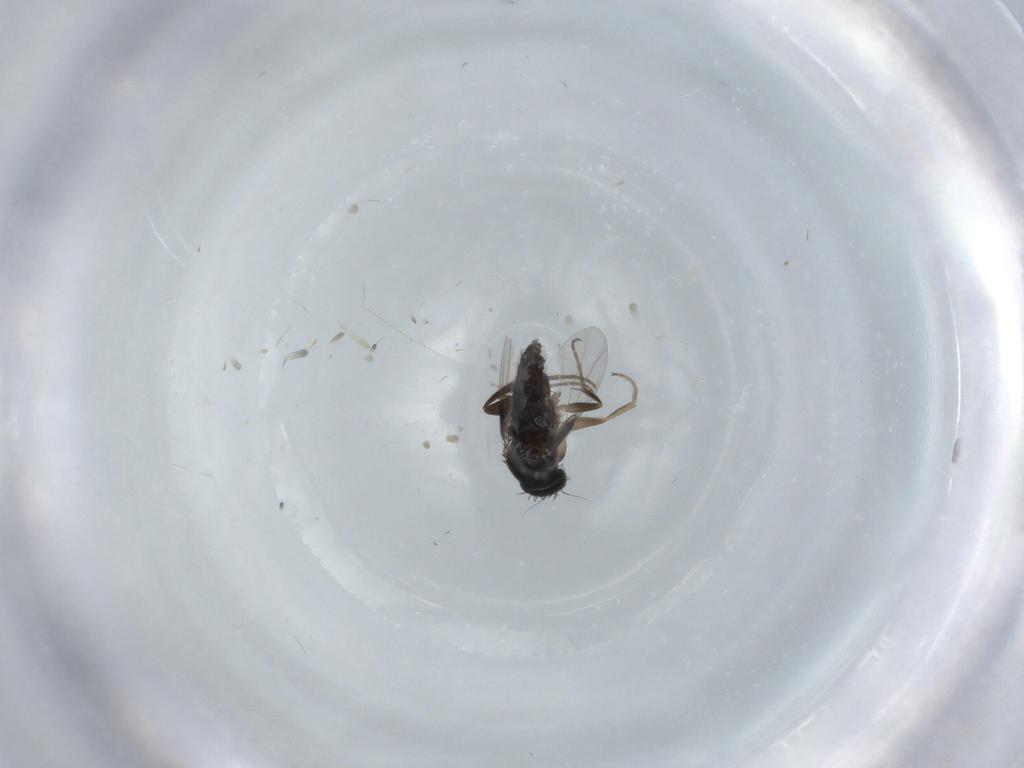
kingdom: Animalia
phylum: Arthropoda
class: Insecta
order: Diptera
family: Phoridae
